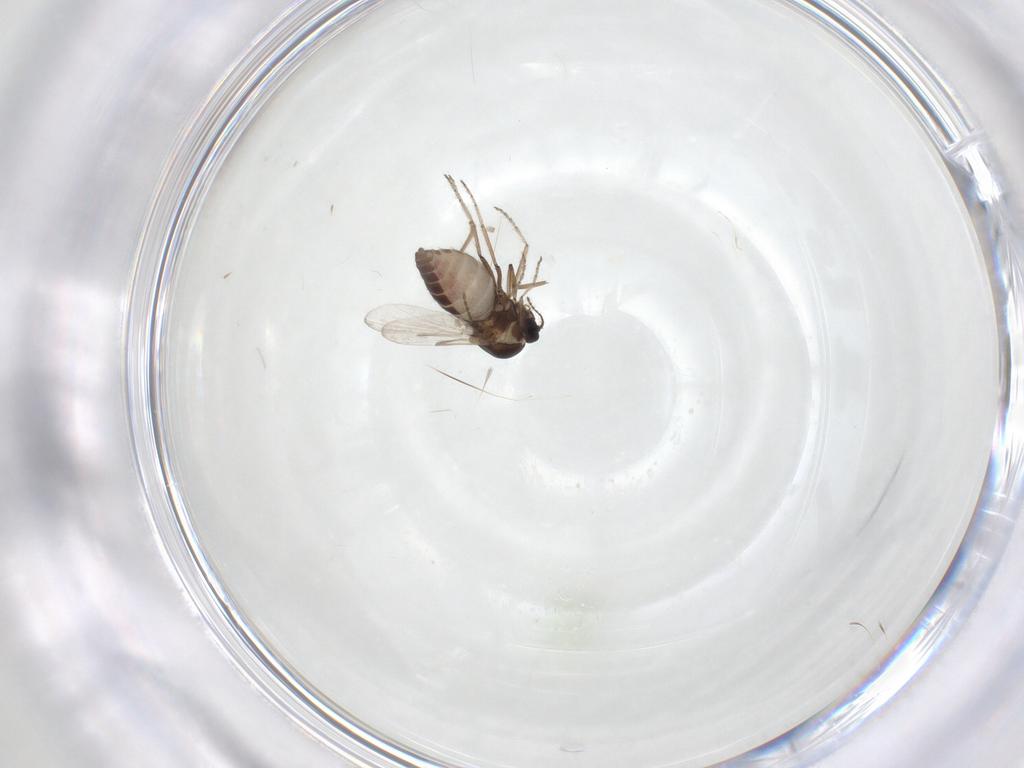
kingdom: Animalia
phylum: Arthropoda
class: Insecta
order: Diptera
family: Ceratopogonidae
